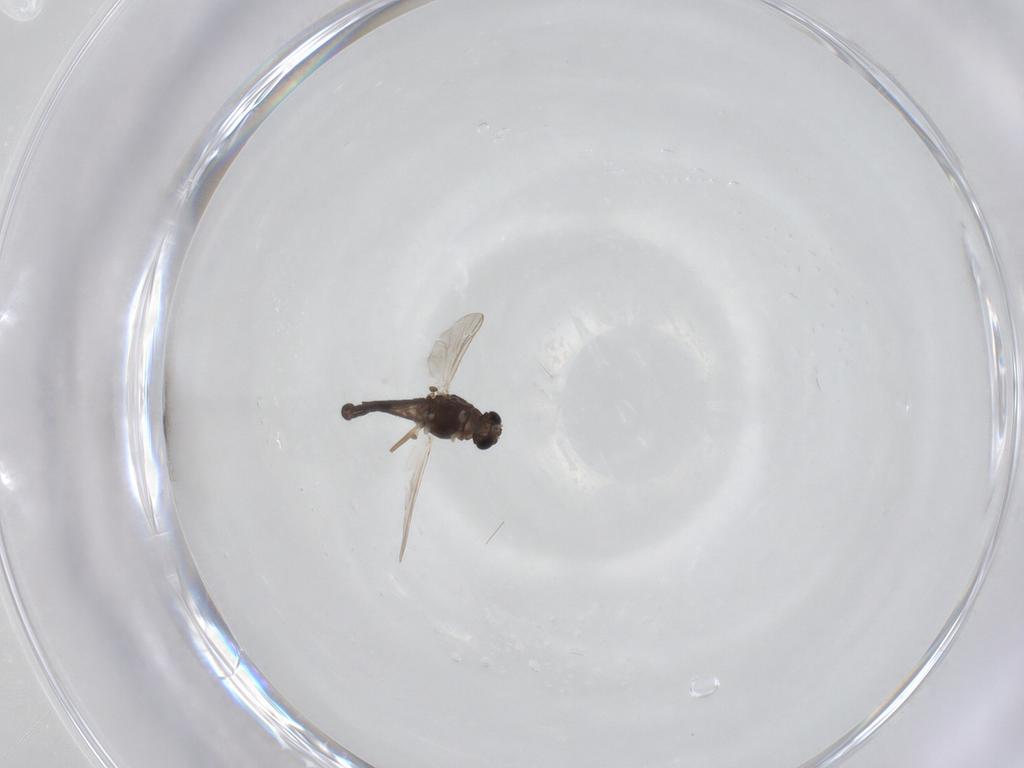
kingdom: Animalia
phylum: Arthropoda
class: Insecta
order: Diptera
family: Chironomidae
